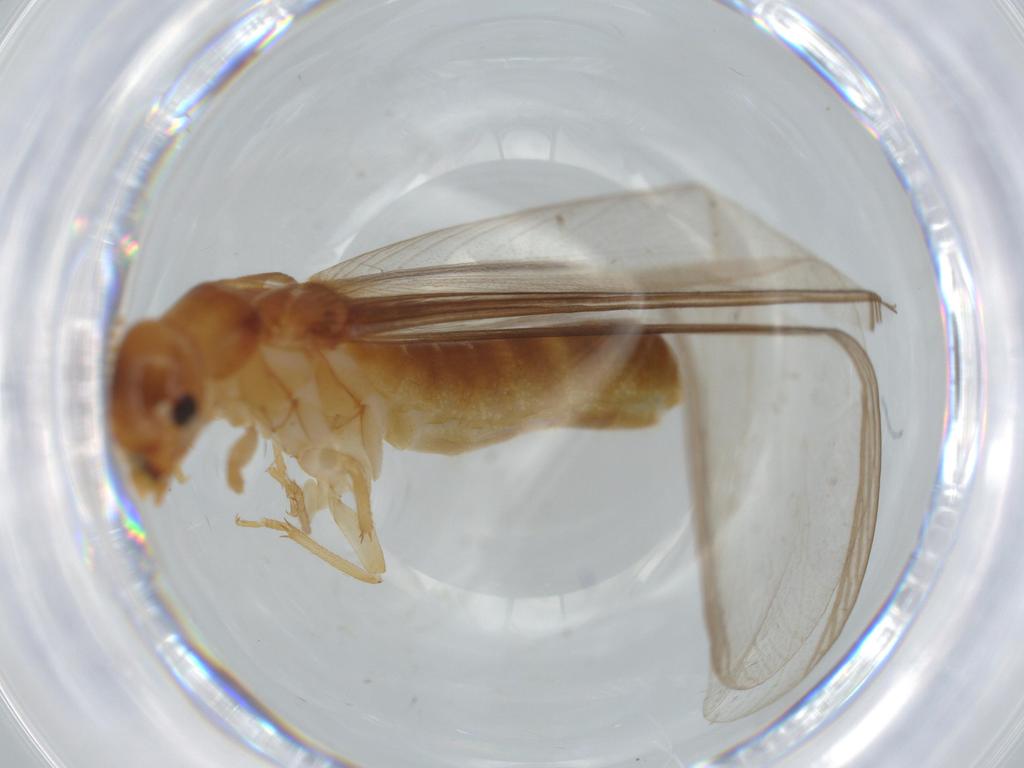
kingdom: Animalia
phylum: Arthropoda
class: Insecta
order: Blattodea
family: Kalotermitidae
